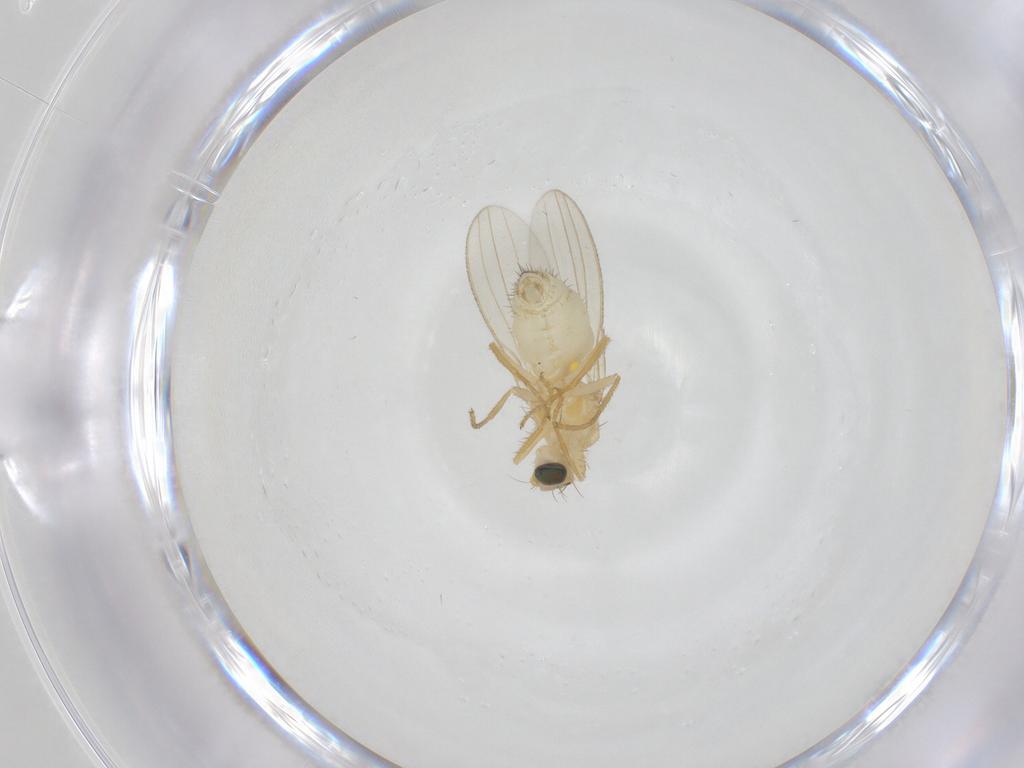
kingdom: Animalia
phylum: Arthropoda
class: Insecta
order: Diptera
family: Chyromyidae
